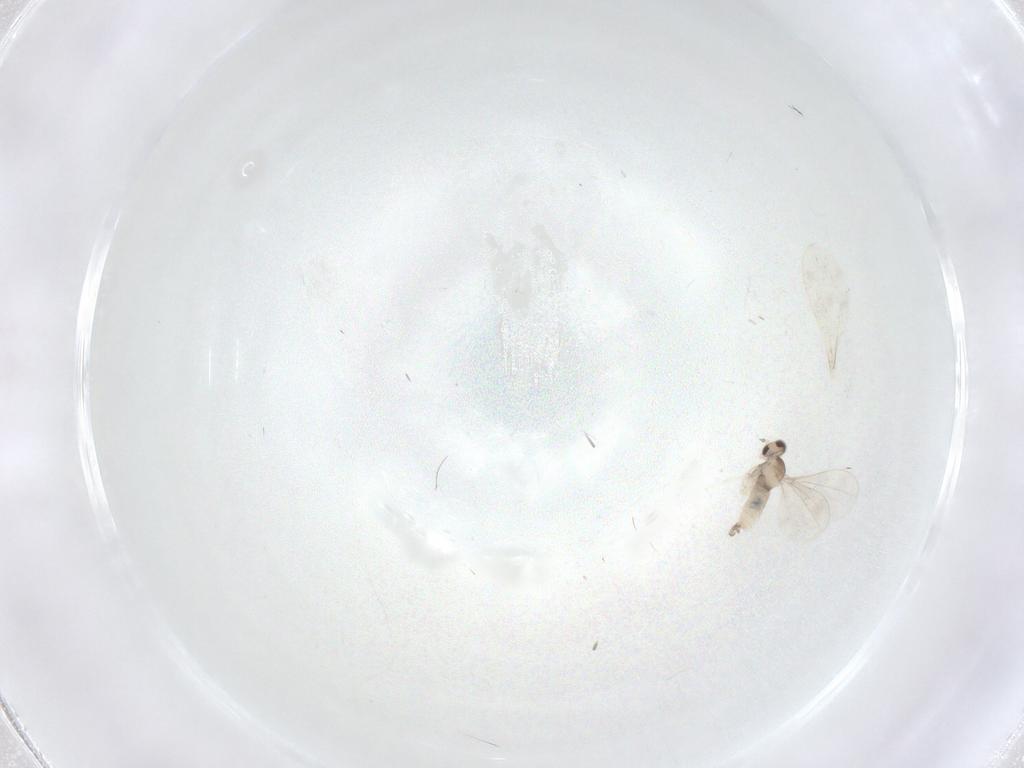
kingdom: Animalia
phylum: Arthropoda
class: Insecta
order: Diptera
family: Cecidomyiidae
